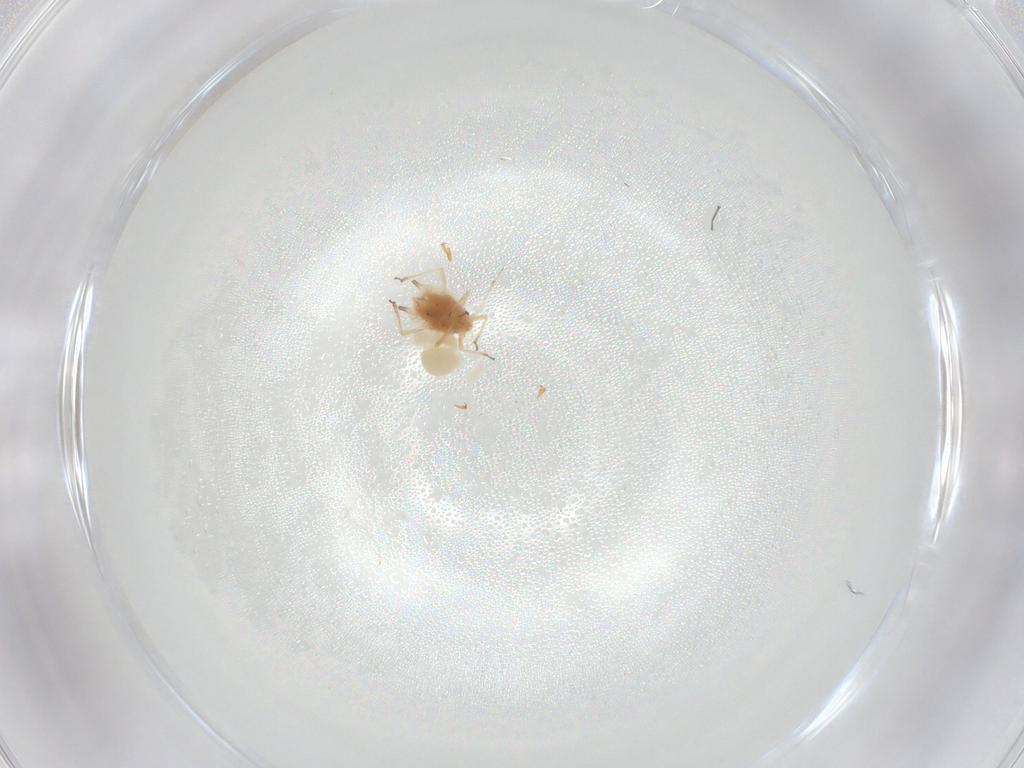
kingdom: Animalia
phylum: Arthropoda
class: Insecta
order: Hemiptera
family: Aphididae
